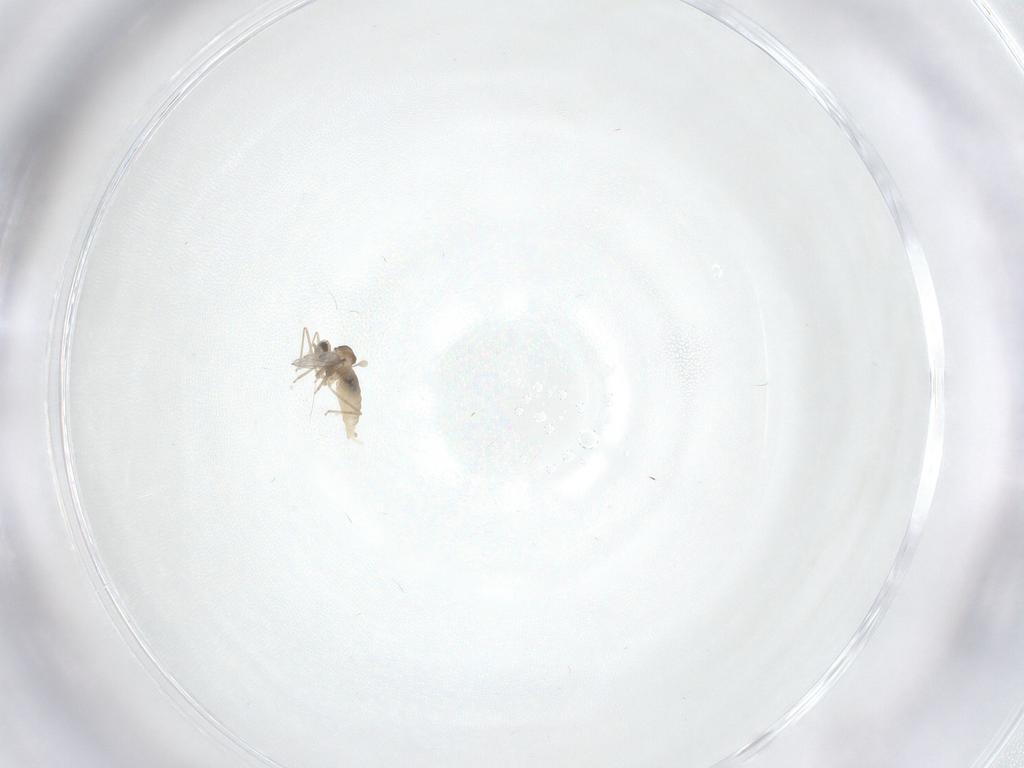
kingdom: Animalia
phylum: Arthropoda
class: Insecta
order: Diptera
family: Cecidomyiidae
